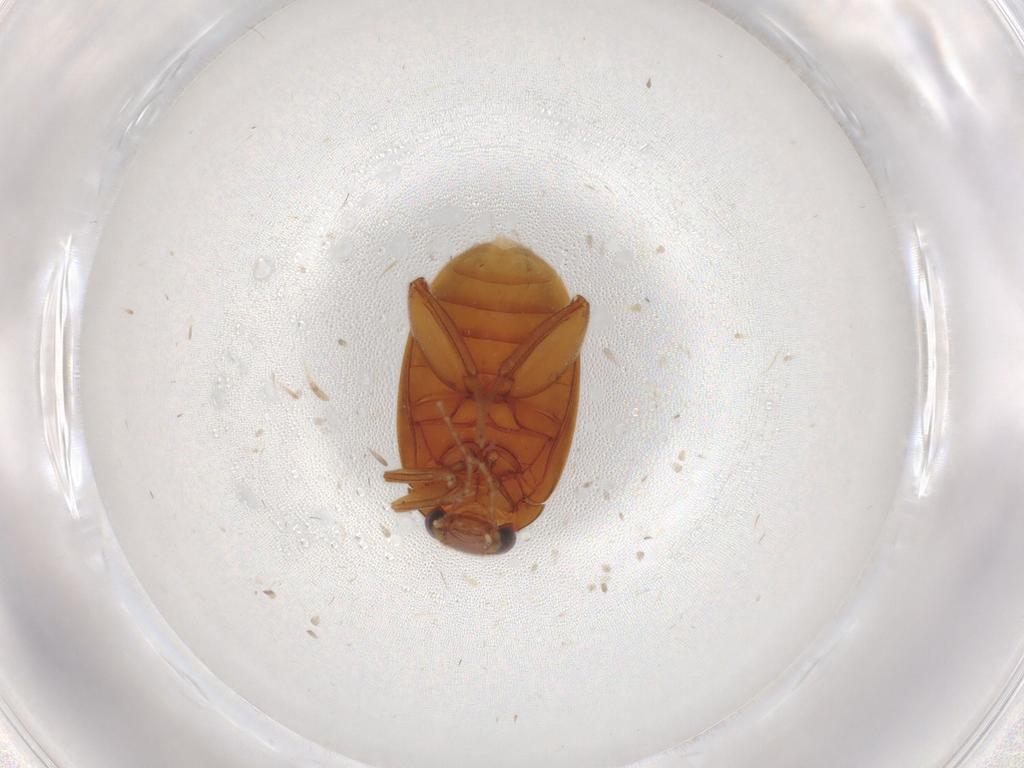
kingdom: Animalia
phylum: Arthropoda
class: Insecta
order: Coleoptera
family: Scirtidae
